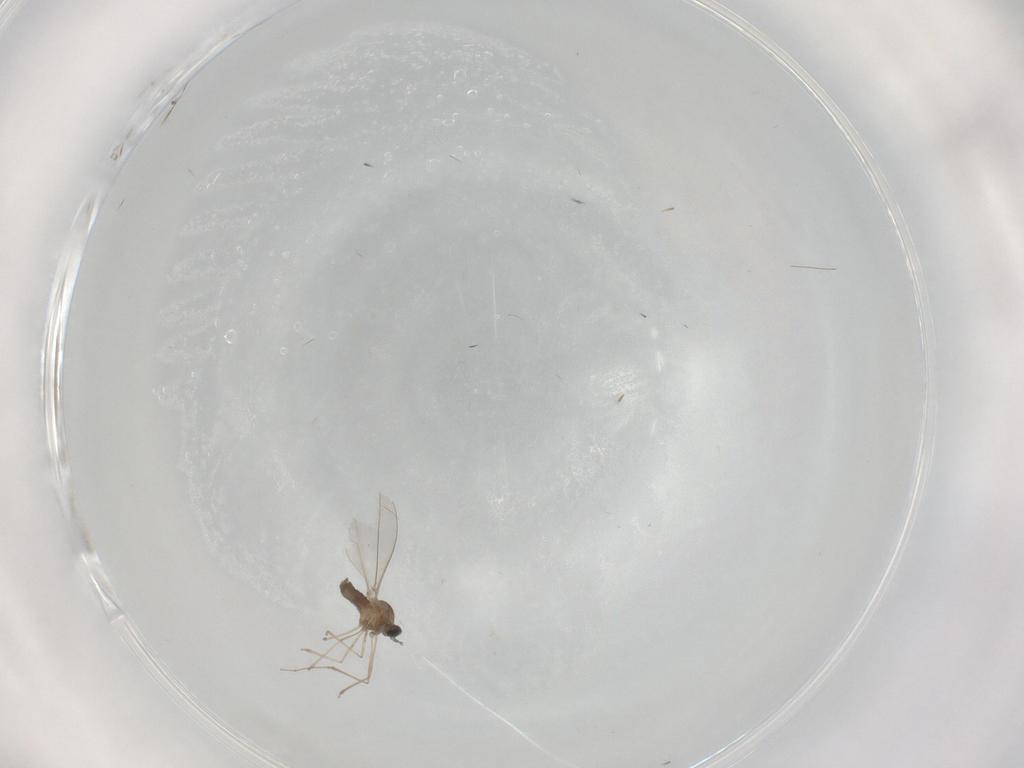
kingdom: Animalia
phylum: Arthropoda
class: Insecta
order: Diptera
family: Cecidomyiidae
